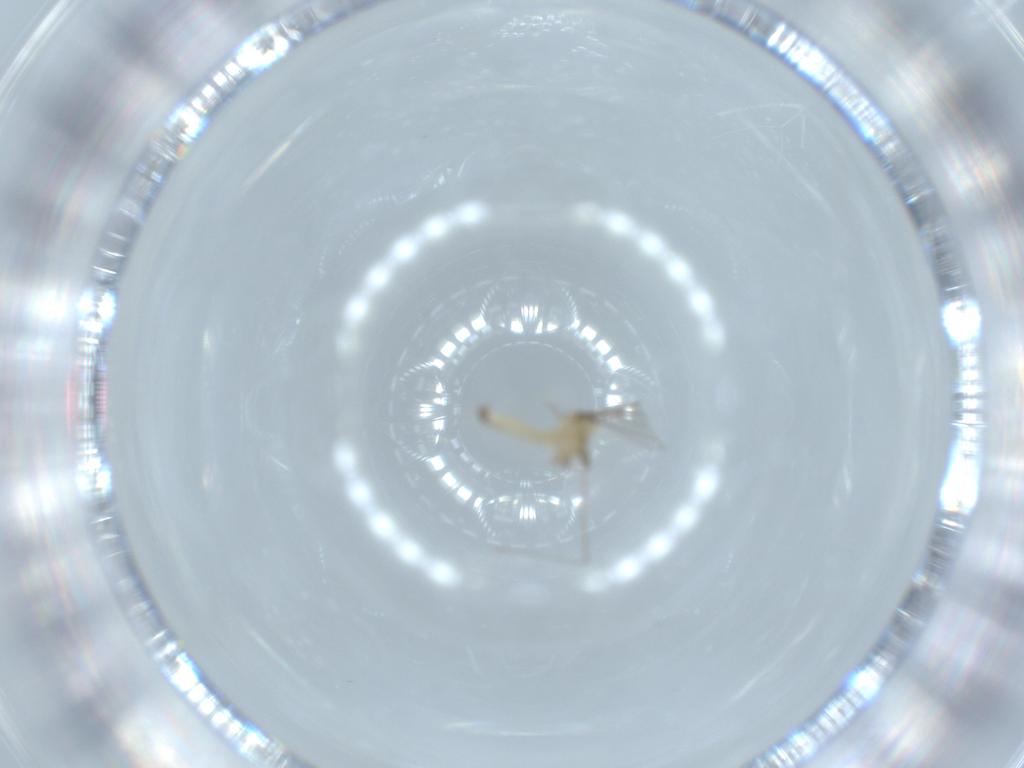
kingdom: Animalia
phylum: Arthropoda
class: Insecta
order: Diptera
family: Cecidomyiidae
